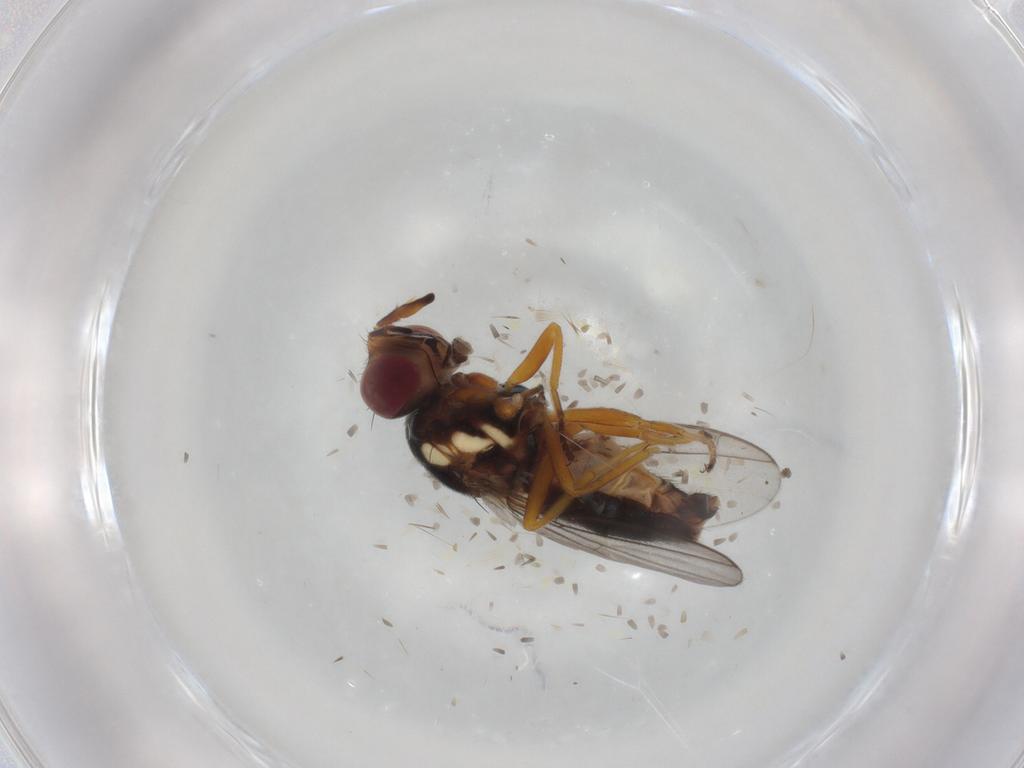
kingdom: Animalia
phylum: Arthropoda
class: Insecta
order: Diptera
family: Chloropidae
